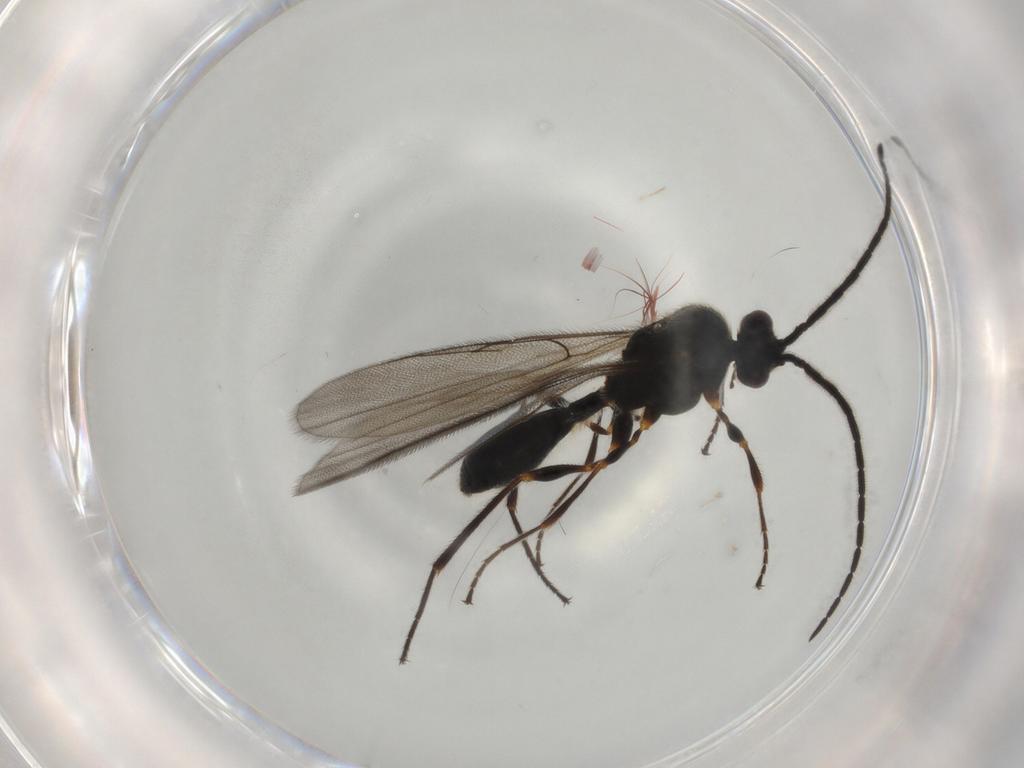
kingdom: Animalia
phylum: Arthropoda
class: Insecta
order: Hymenoptera
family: Diapriidae
